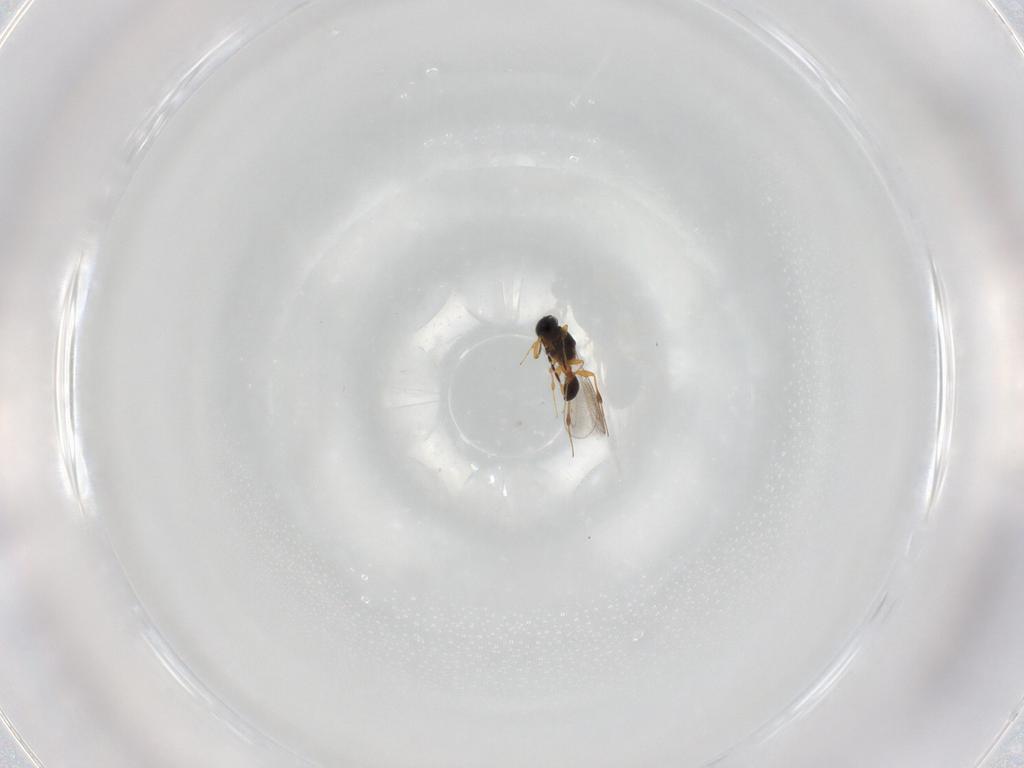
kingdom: Animalia
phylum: Arthropoda
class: Insecta
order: Hymenoptera
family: Platygastridae
